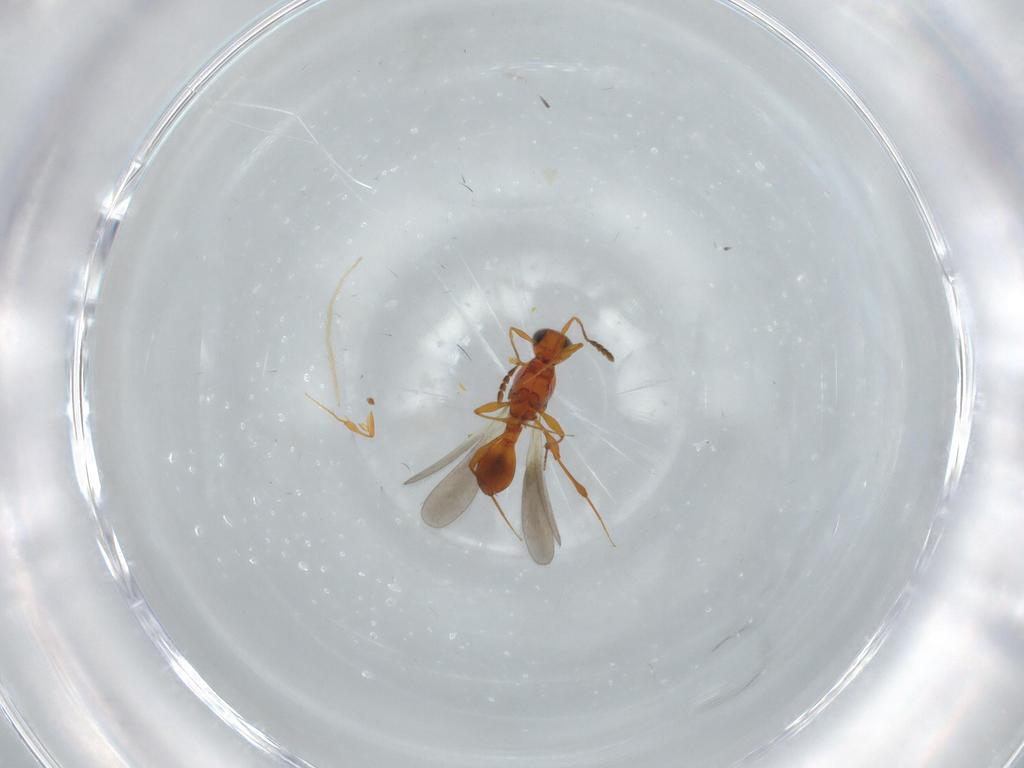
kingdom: Animalia
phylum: Arthropoda
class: Insecta
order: Hymenoptera
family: Platygastridae
